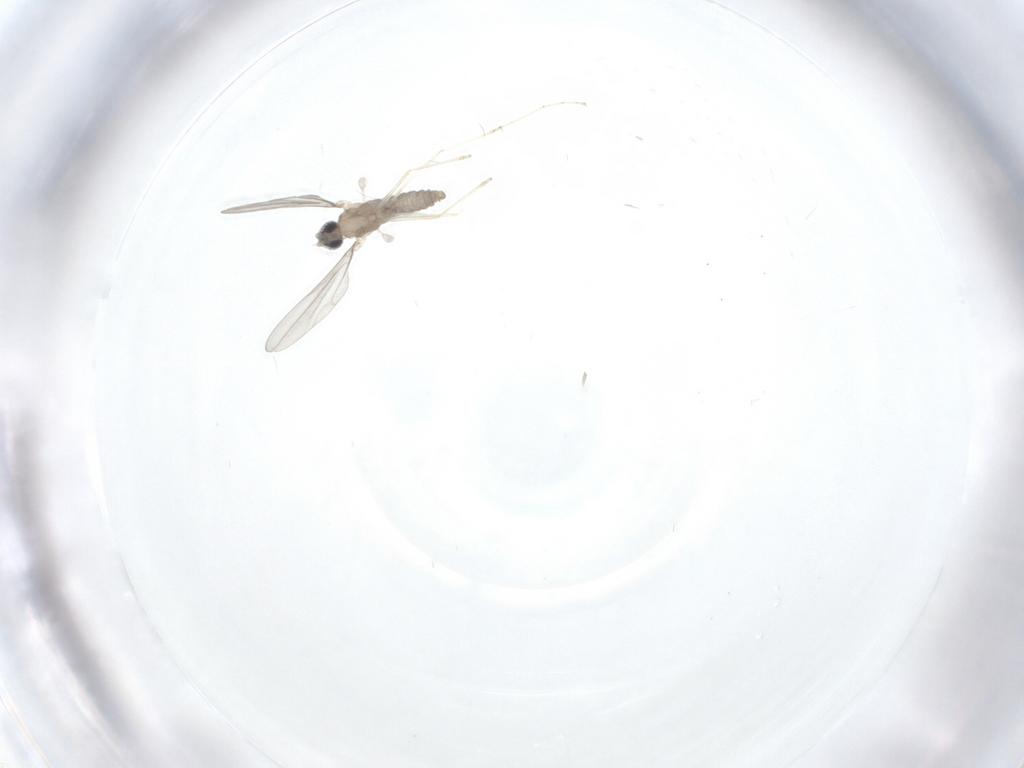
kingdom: Animalia
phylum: Arthropoda
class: Insecta
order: Diptera
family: Cecidomyiidae
